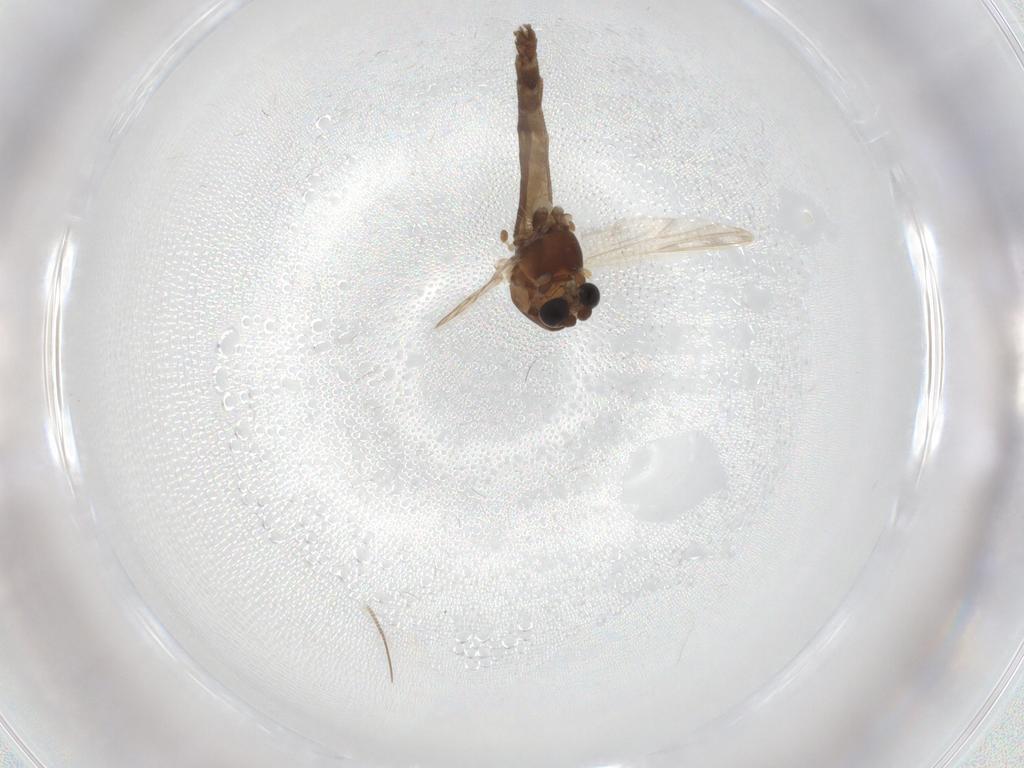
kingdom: Animalia
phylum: Arthropoda
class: Insecta
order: Diptera
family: Chironomidae
